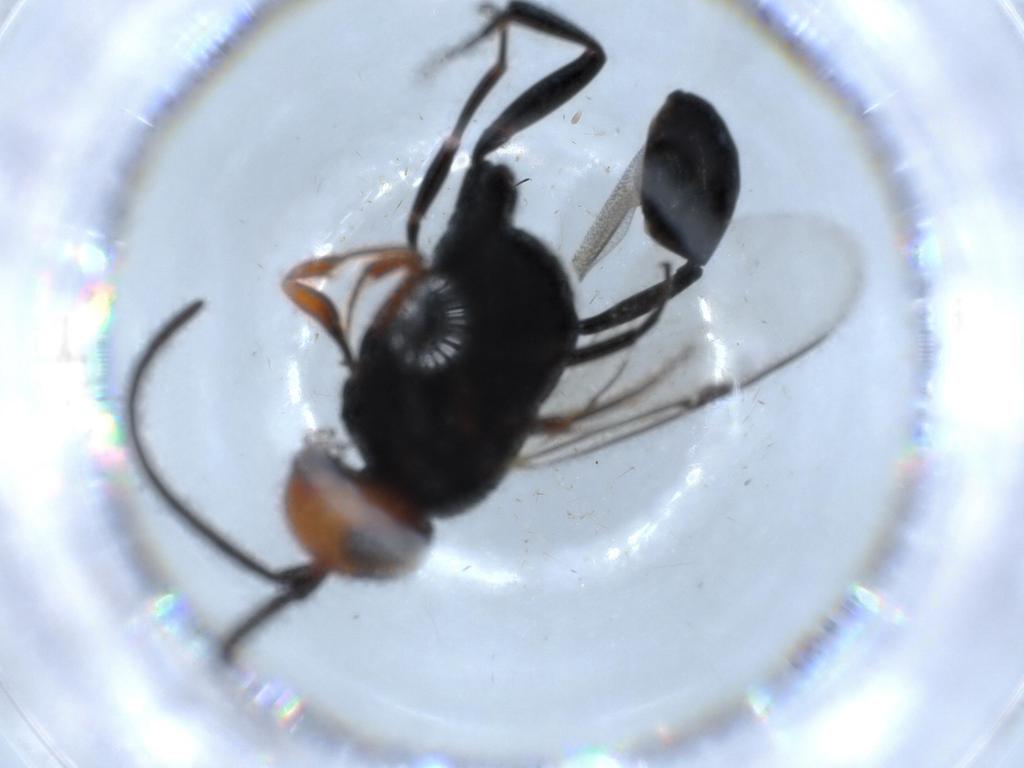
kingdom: Animalia
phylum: Arthropoda
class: Insecta
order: Hymenoptera
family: Evaniidae
